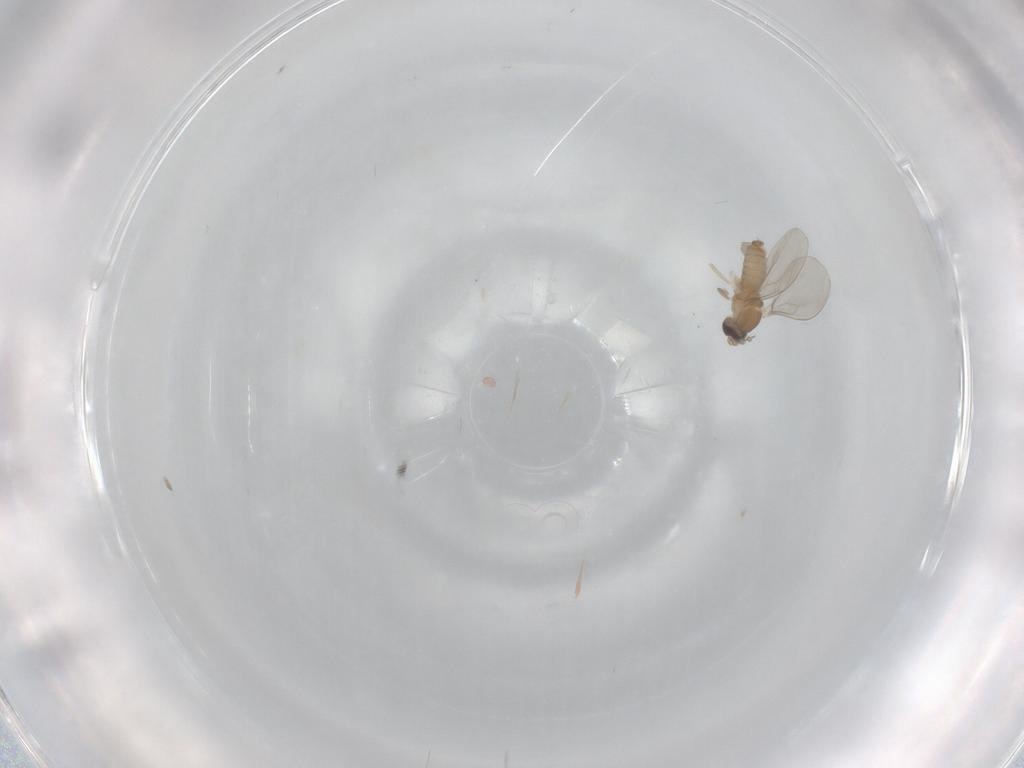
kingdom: Animalia
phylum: Arthropoda
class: Insecta
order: Diptera
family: Cecidomyiidae
